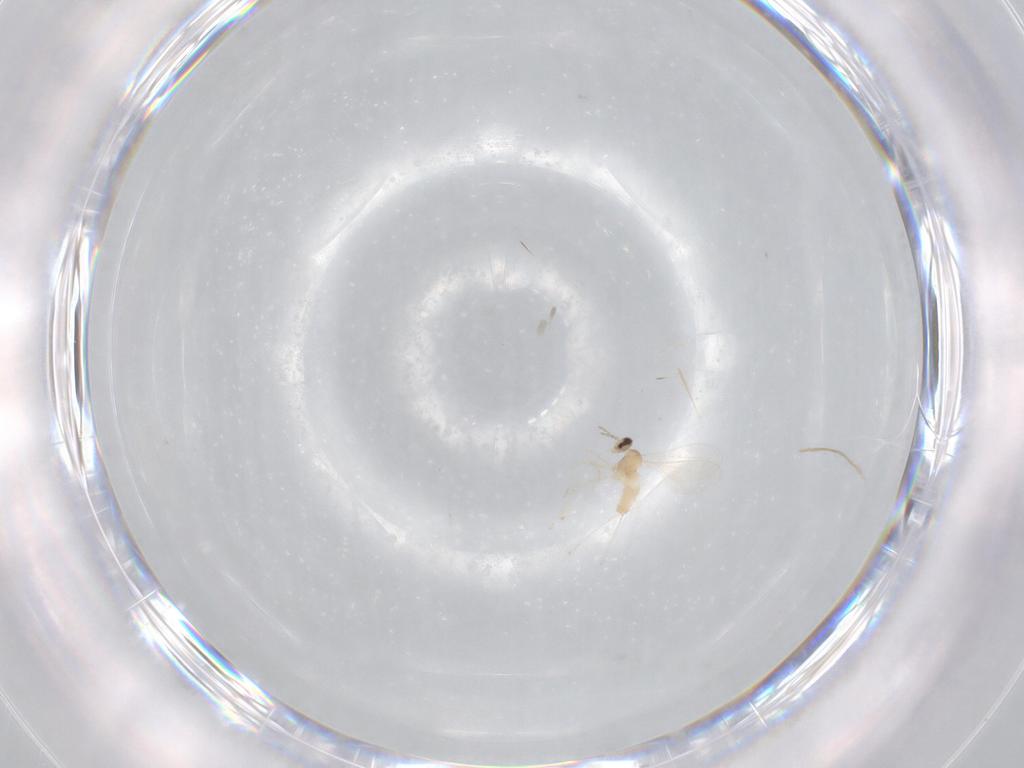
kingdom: Animalia
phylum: Arthropoda
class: Insecta
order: Diptera
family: Cecidomyiidae
